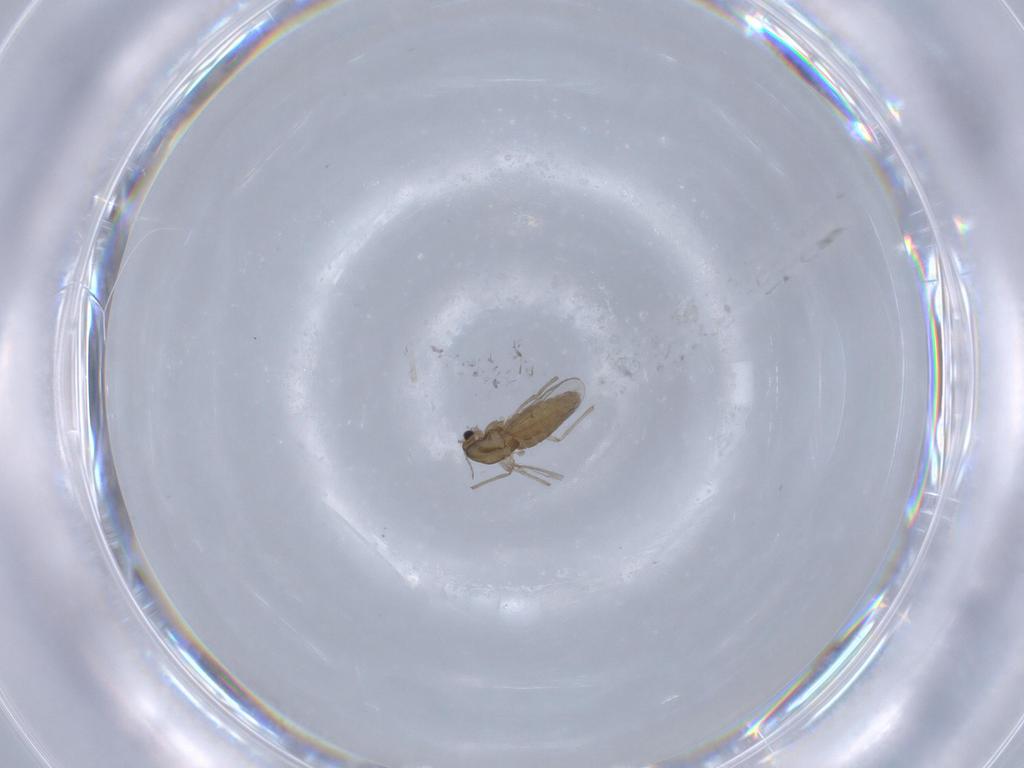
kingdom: Animalia
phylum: Arthropoda
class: Insecta
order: Diptera
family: Chironomidae
